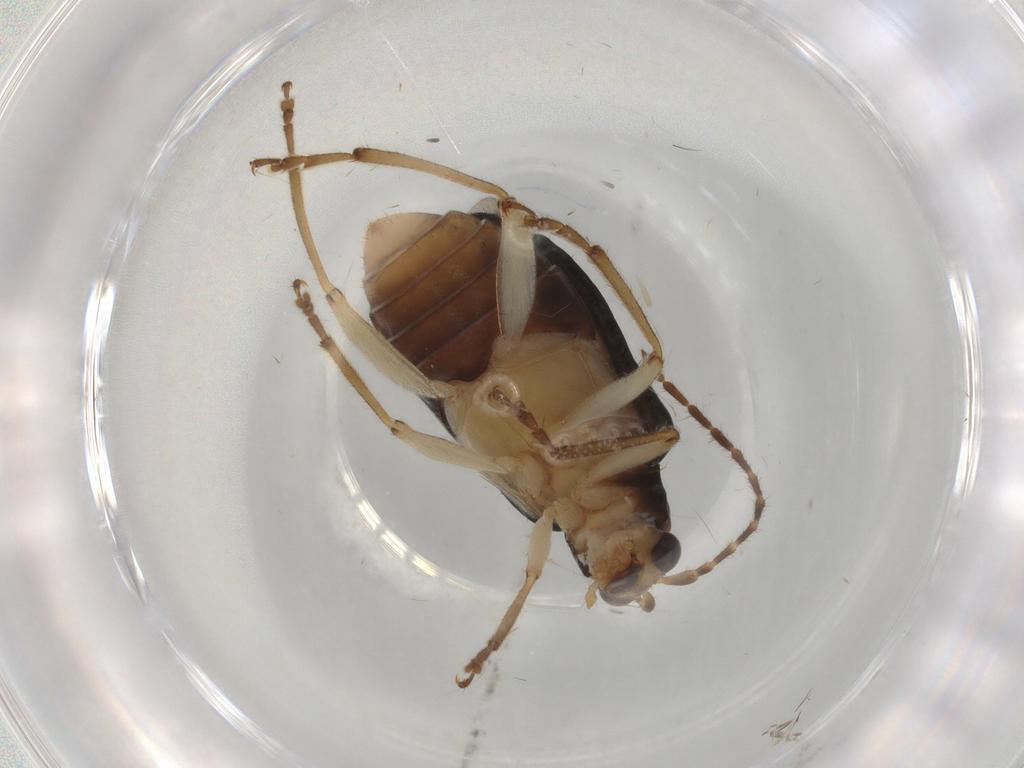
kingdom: Animalia
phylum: Arthropoda
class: Insecta
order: Coleoptera
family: Chrysomelidae
